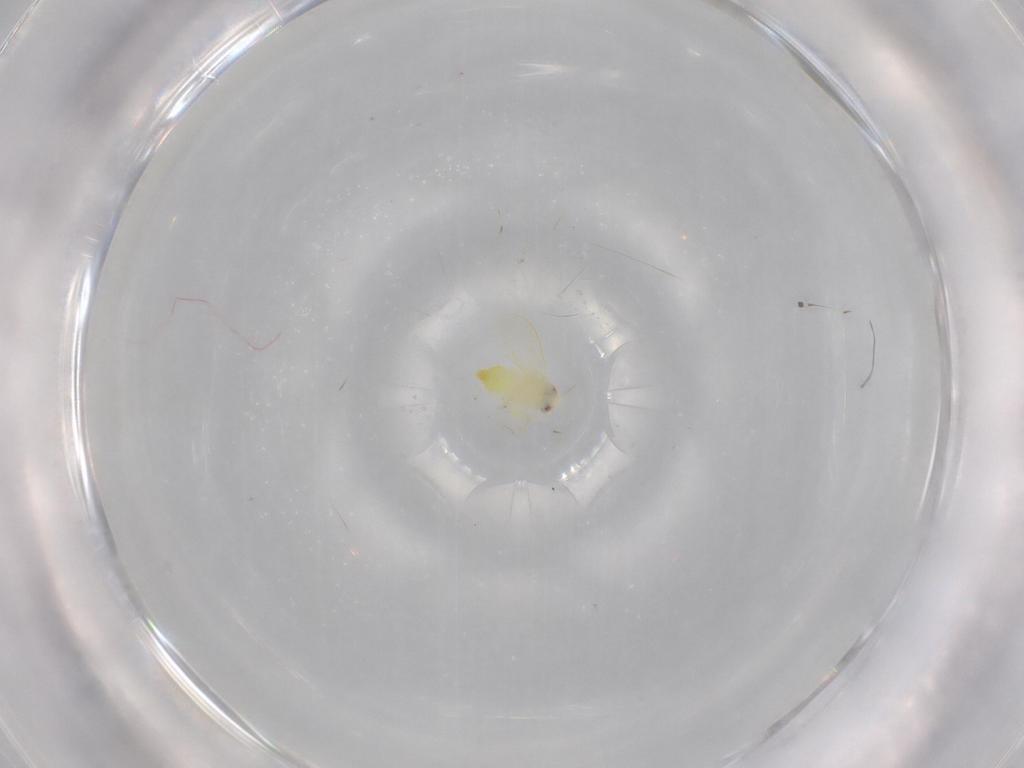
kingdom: Animalia
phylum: Arthropoda
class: Insecta
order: Hemiptera
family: Aleyrodidae
